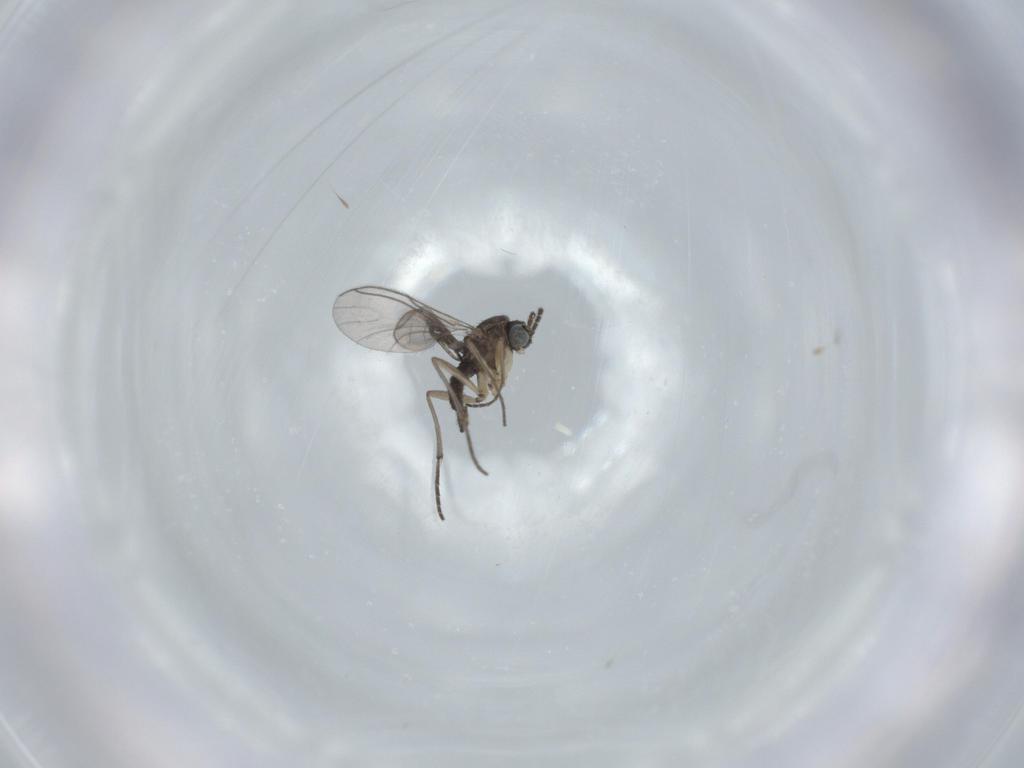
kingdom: Animalia
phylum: Arthropoda
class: Insecta
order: Diptera
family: Sciaridae
